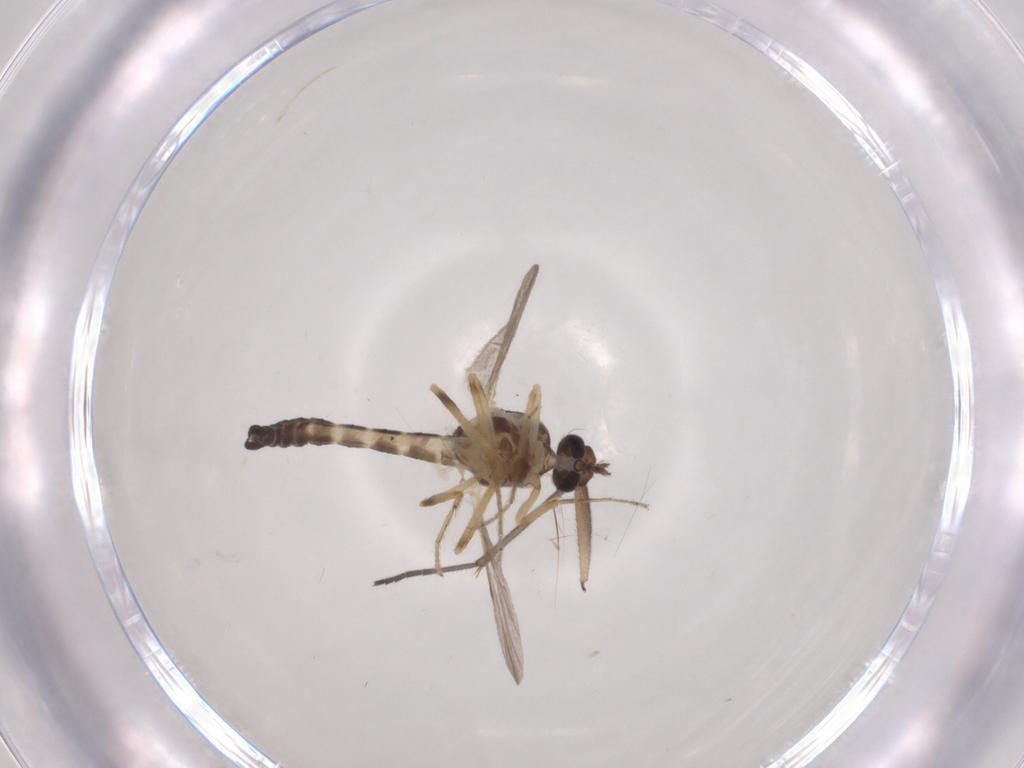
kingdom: Animalia
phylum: Arthropoda
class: Insecta
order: Diptera
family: Ceratopogonidae
